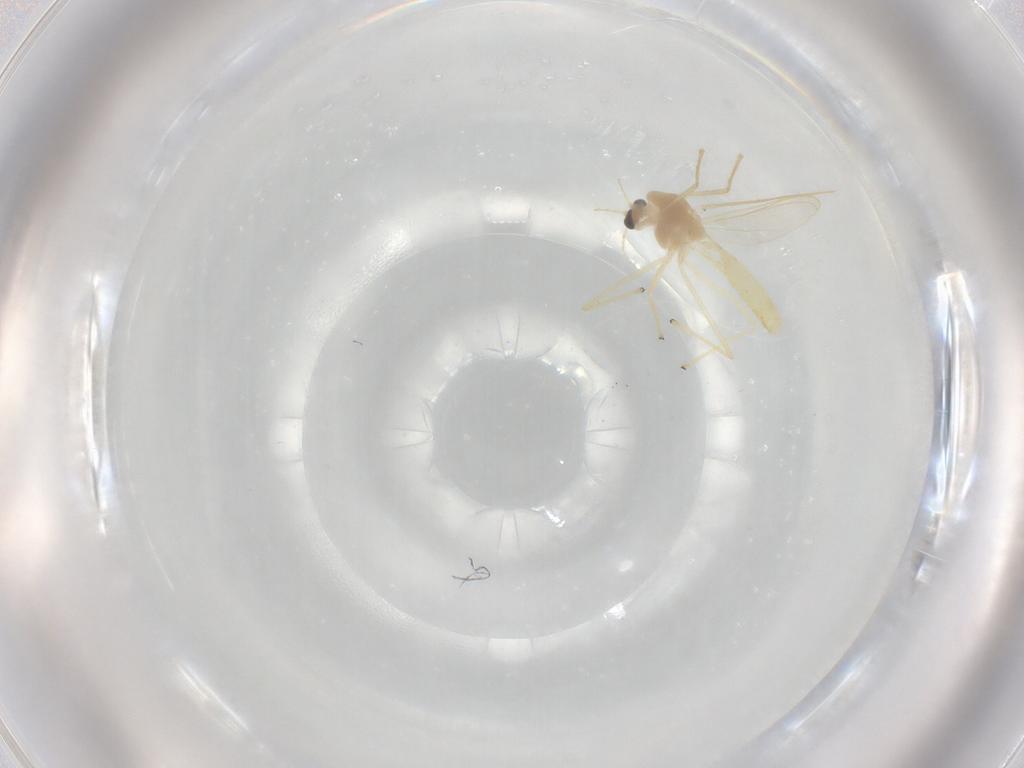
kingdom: Animalia
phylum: Arthropoda
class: Insecta
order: Diptera
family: Chironomidae
